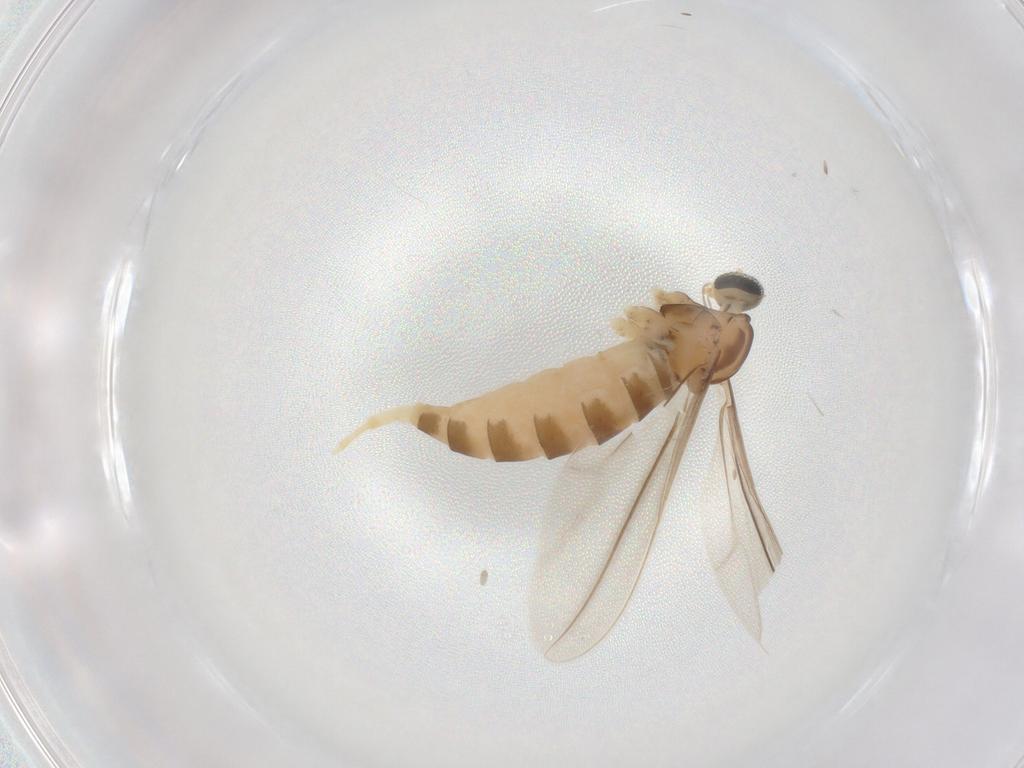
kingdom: Animalia
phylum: Arthropoda
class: Insecta
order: Diptera
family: Cecidomyiidae
